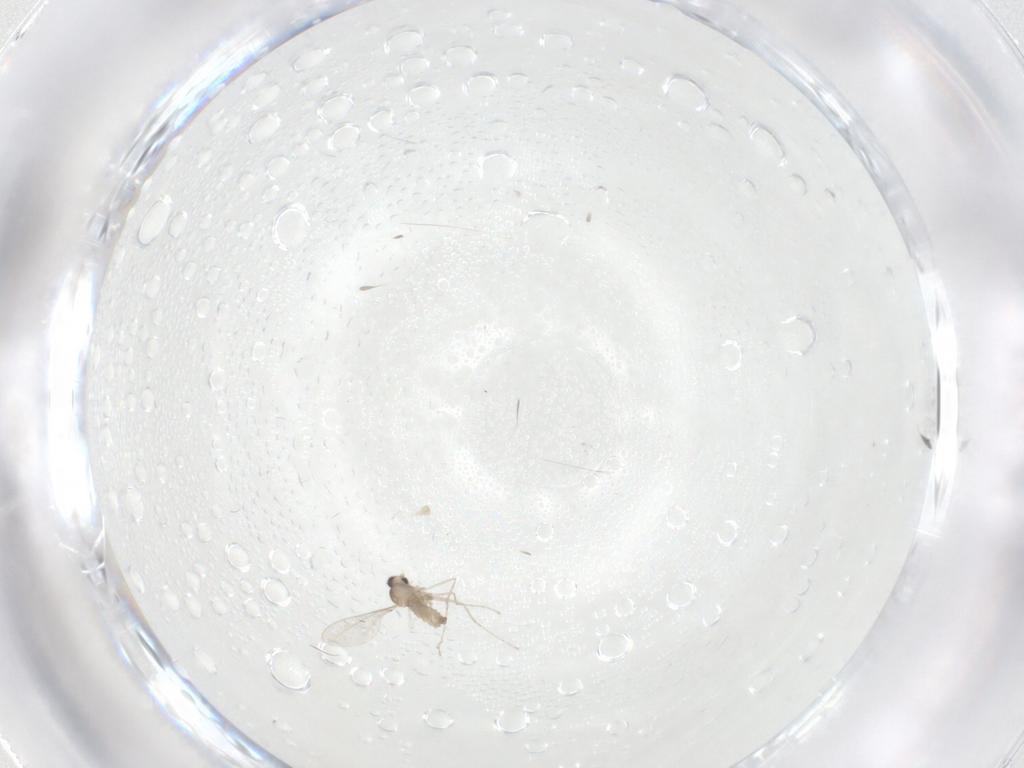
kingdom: Animalia
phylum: Arthropoda
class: Insecta
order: Diptera
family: Cecidomyiidae
